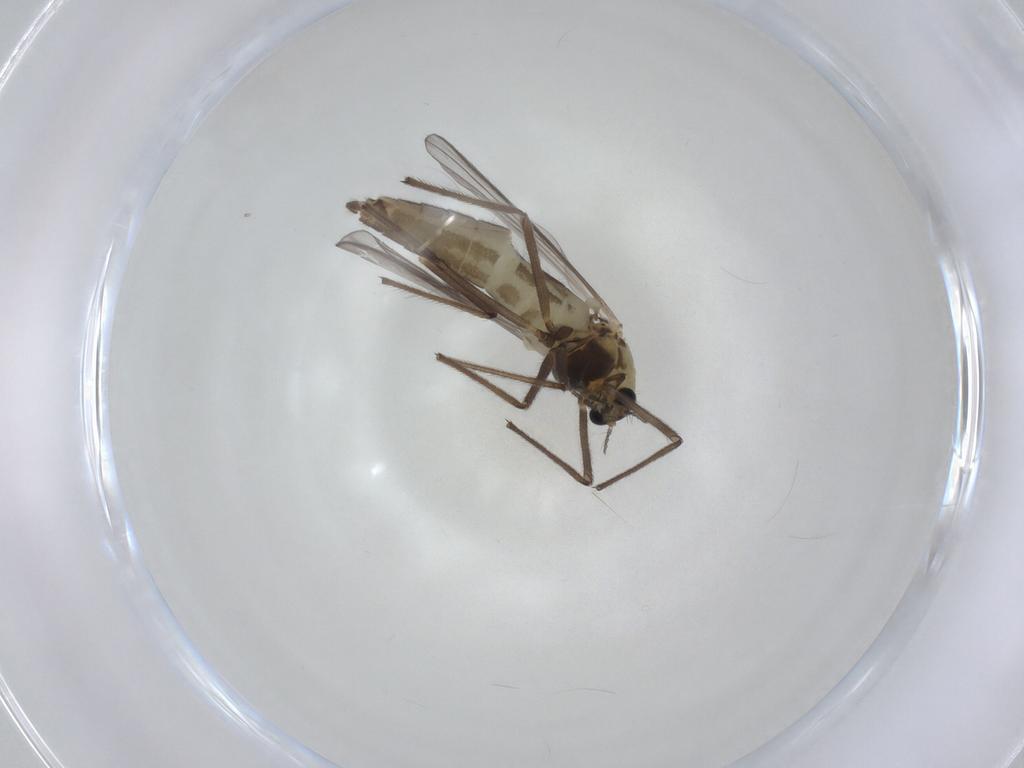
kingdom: Animalia
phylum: Arthropoda
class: Insecta
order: Diptera
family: Chironomidae
